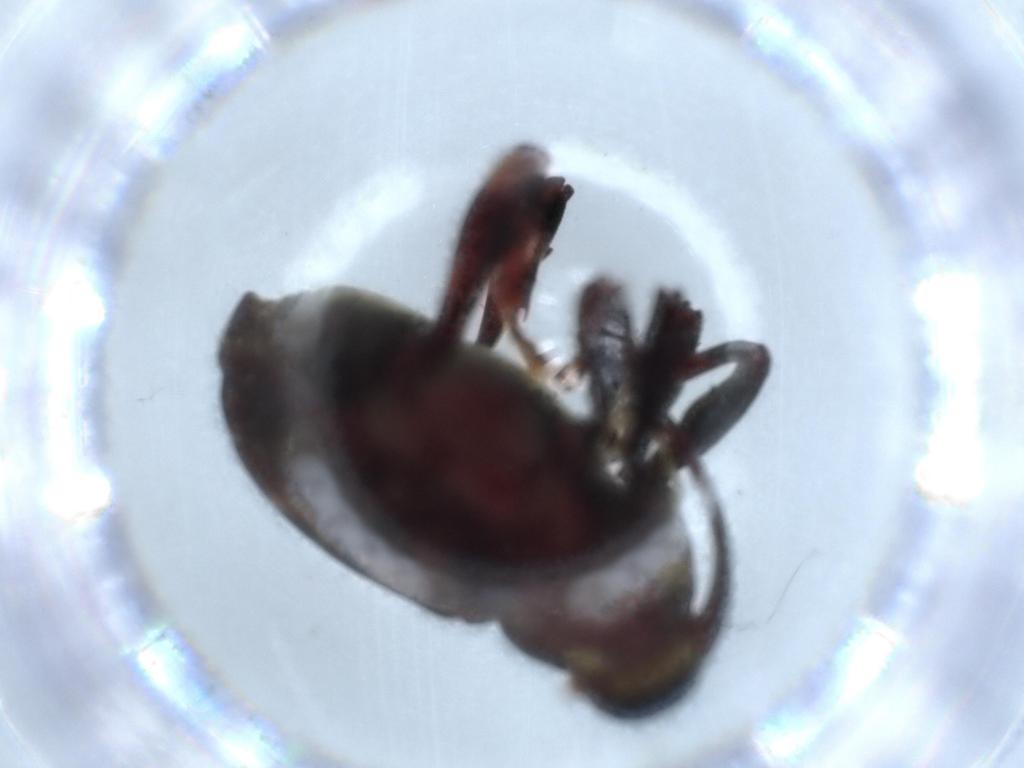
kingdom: Animalia
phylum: Arthropoda
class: Insecta
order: Coleoptera
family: Curculionidae
